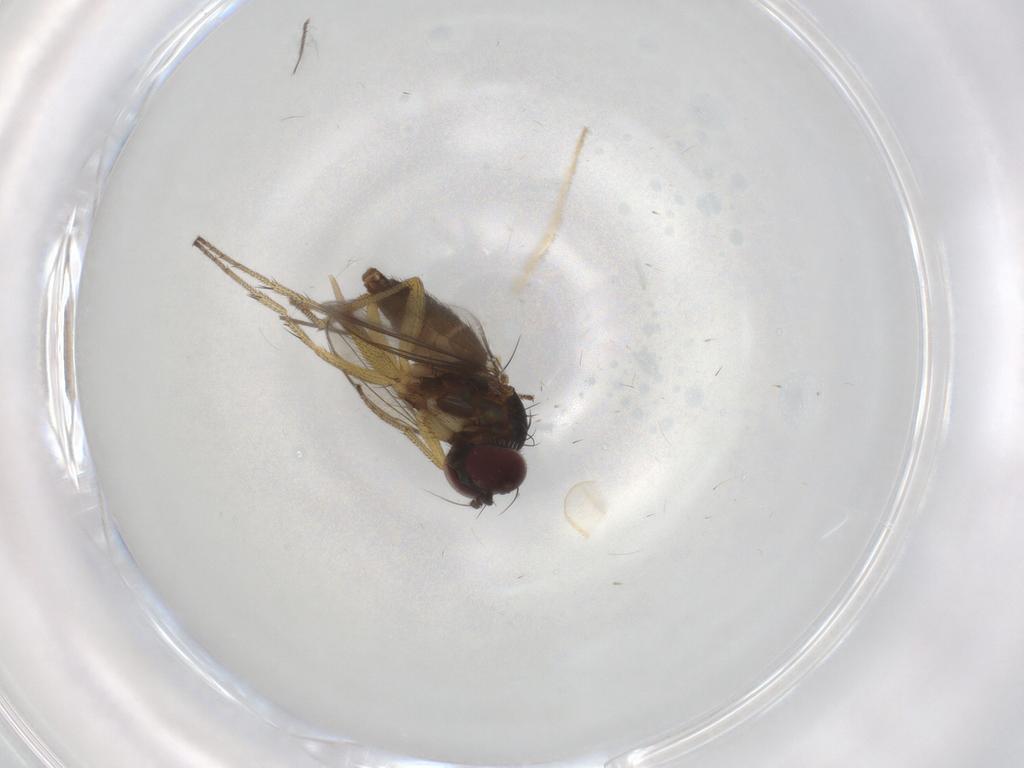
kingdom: Animalia
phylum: Arthropoda
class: Insecta
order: Diptera
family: Dolichopodidae
